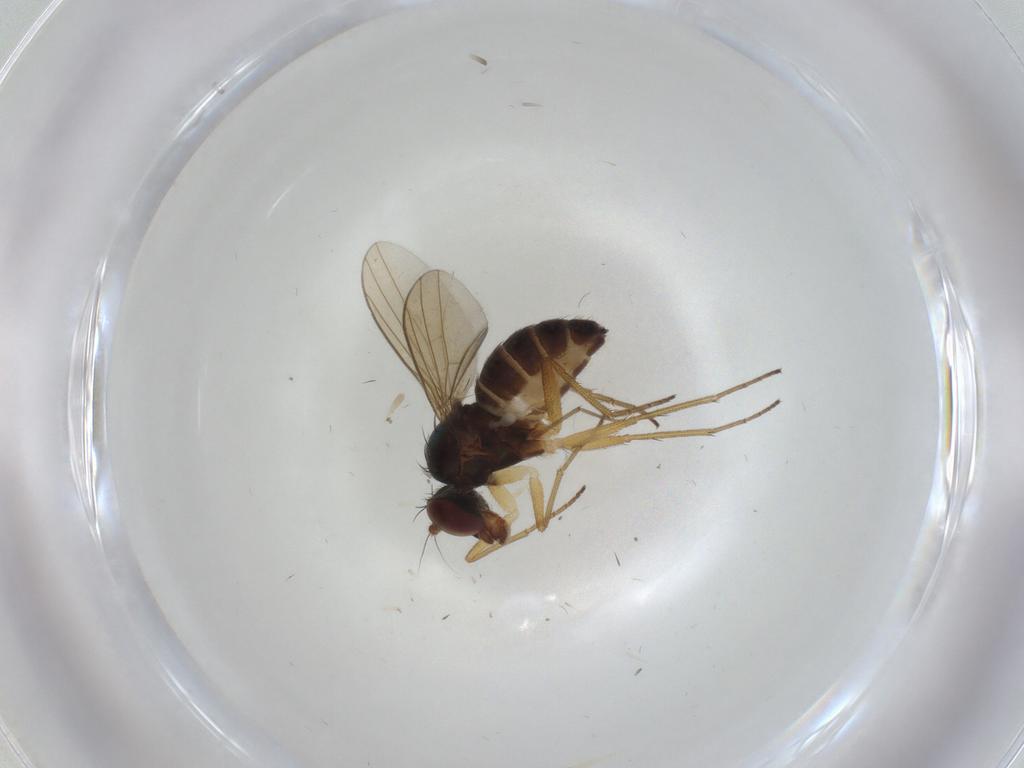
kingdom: Animalia
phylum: Arthropoda
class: Insecta
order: Diptera
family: Dolichopodidae
